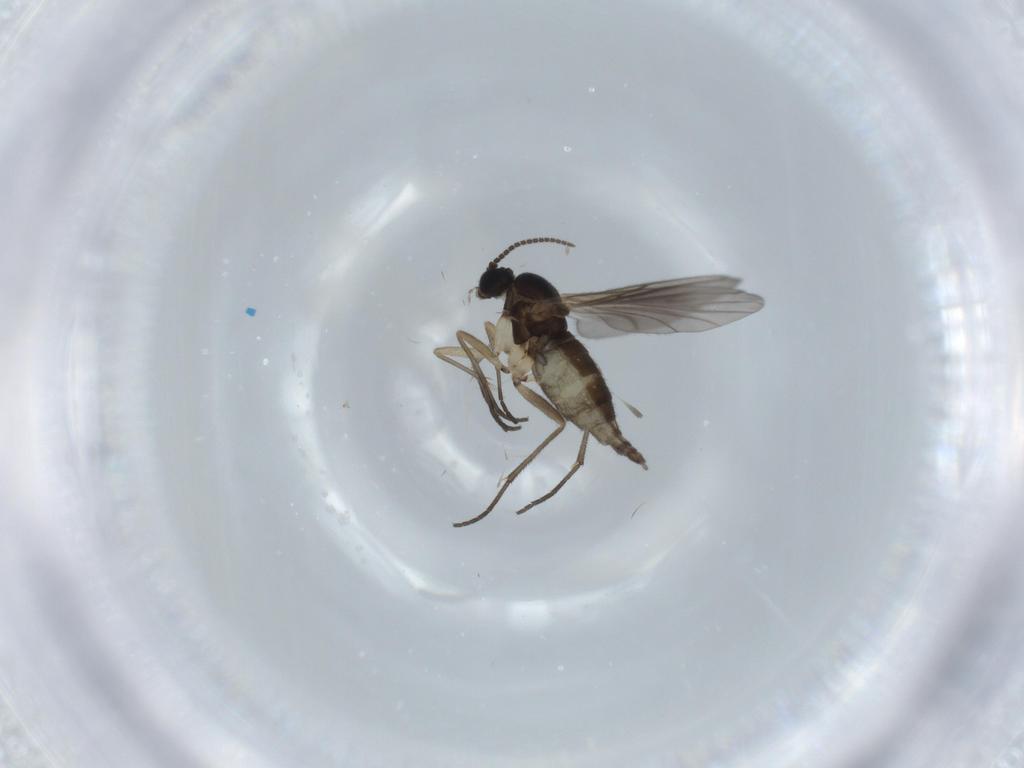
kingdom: Animalia
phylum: Arthropoda
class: Insecta
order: Diptera
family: Sciaridae
